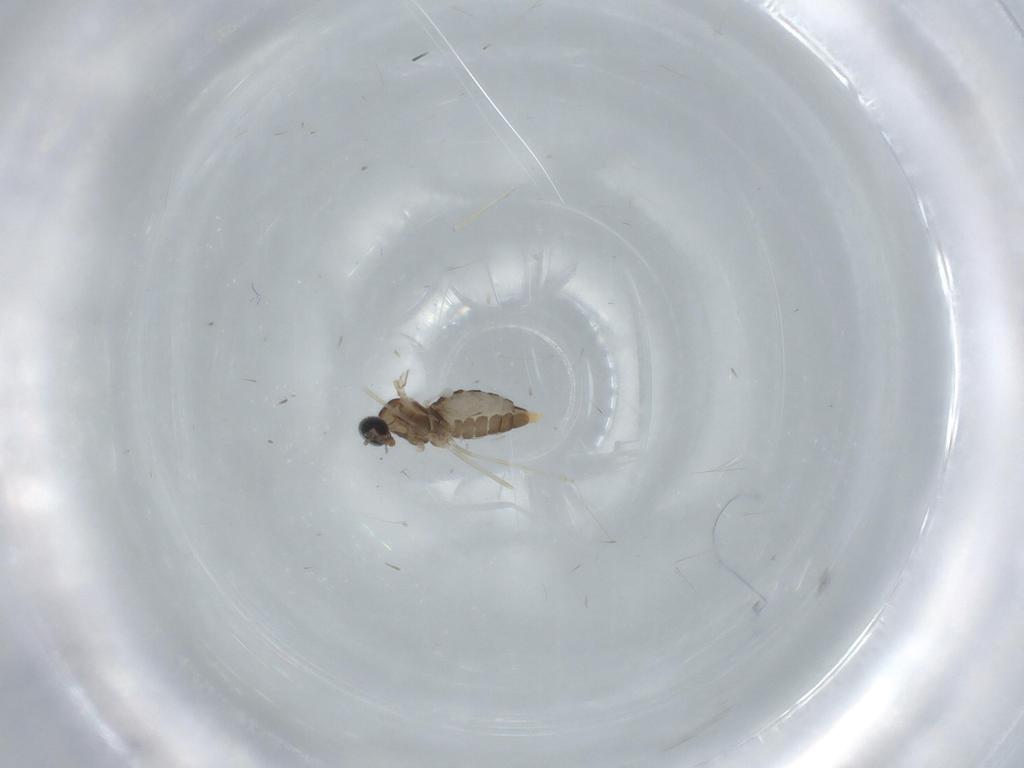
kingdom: Animalia
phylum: Arthropoda
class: Insecta
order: Diptera
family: Cecidomyiidae
